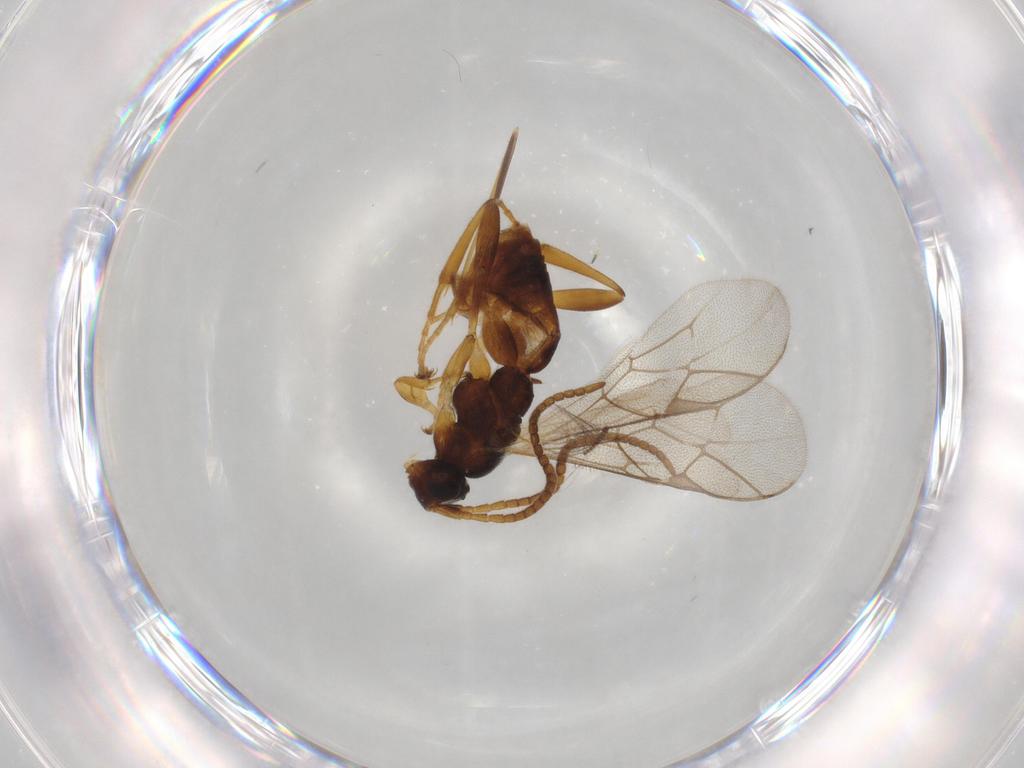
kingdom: Animalia
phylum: Arthropoda
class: Insecta
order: Hymenoptera
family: Ichneumonidae
